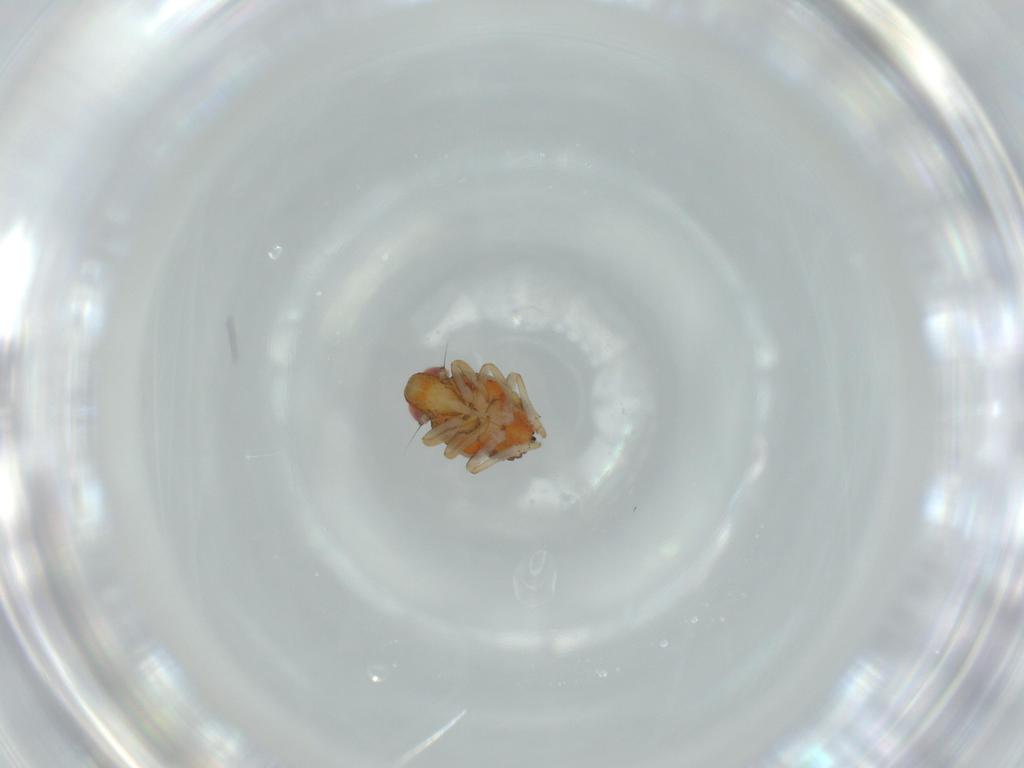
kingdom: Animalia
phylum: Arthropoda
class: Insecta
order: Hemiptera
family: Issidae
